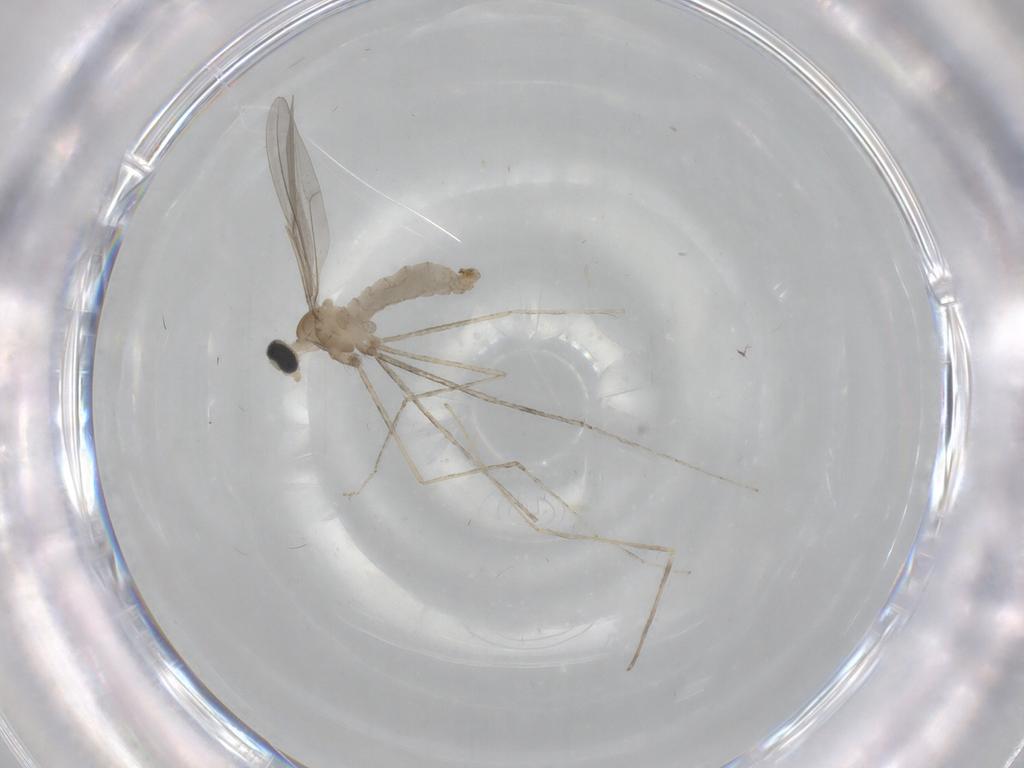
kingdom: Animalia
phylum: Arthropoda
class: Insecta
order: Diptera
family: Cecidomyiidae
